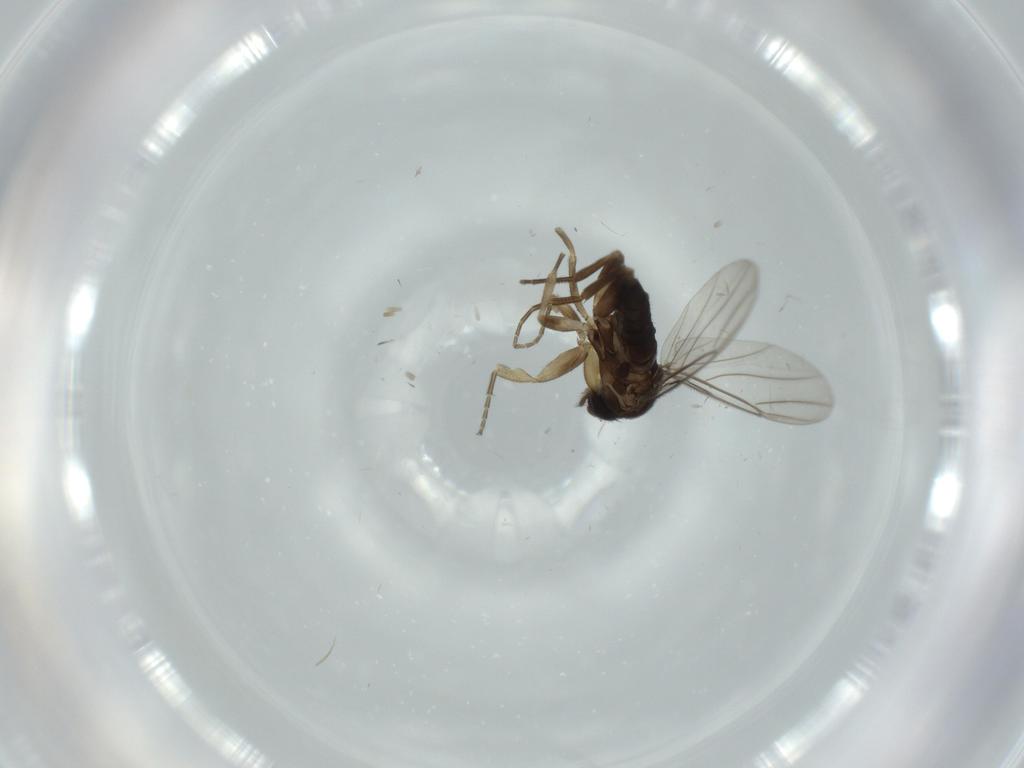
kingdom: Animalia
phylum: Arthropoda
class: Insecta
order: Diptera
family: Phoridae
